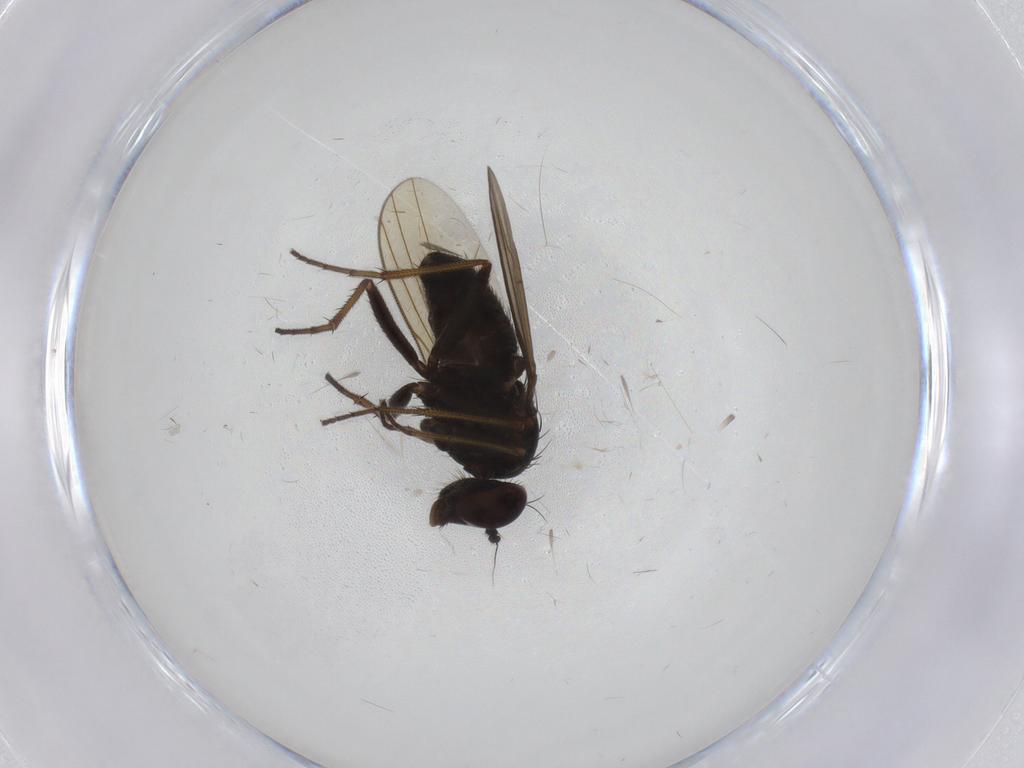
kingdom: Animalia
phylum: Arthropoda
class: Insecta
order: Diptera
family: Dolichopodidae
